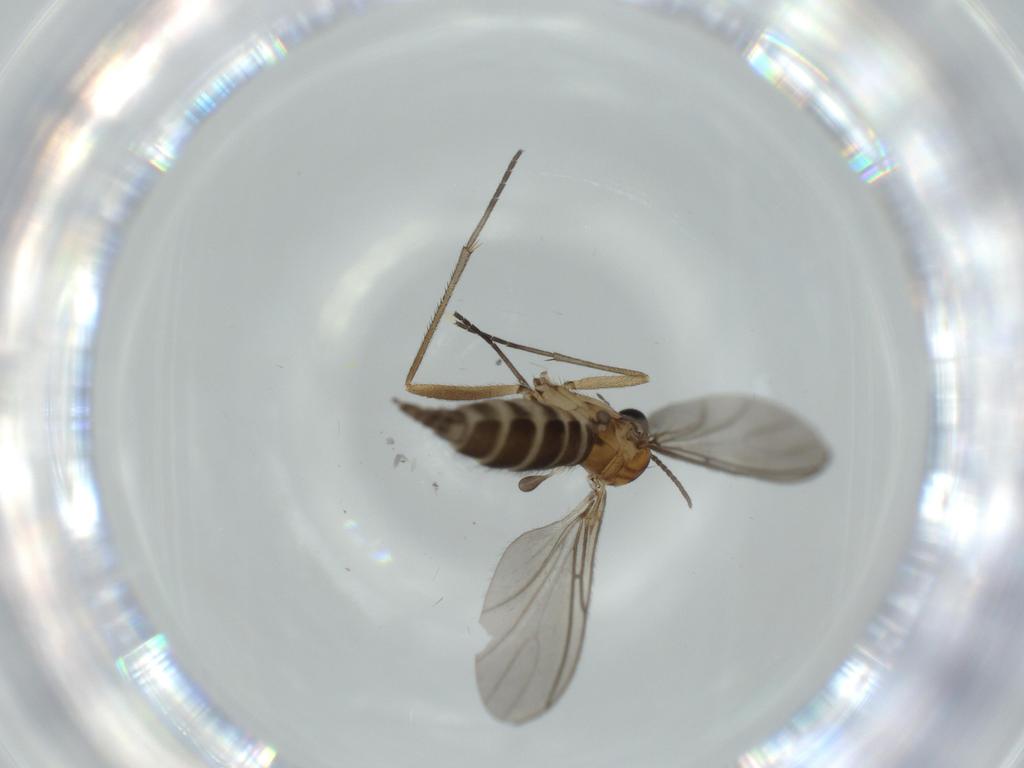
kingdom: Animalia
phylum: Arthropoda
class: Insecta
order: Diptera
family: Sciaridae
